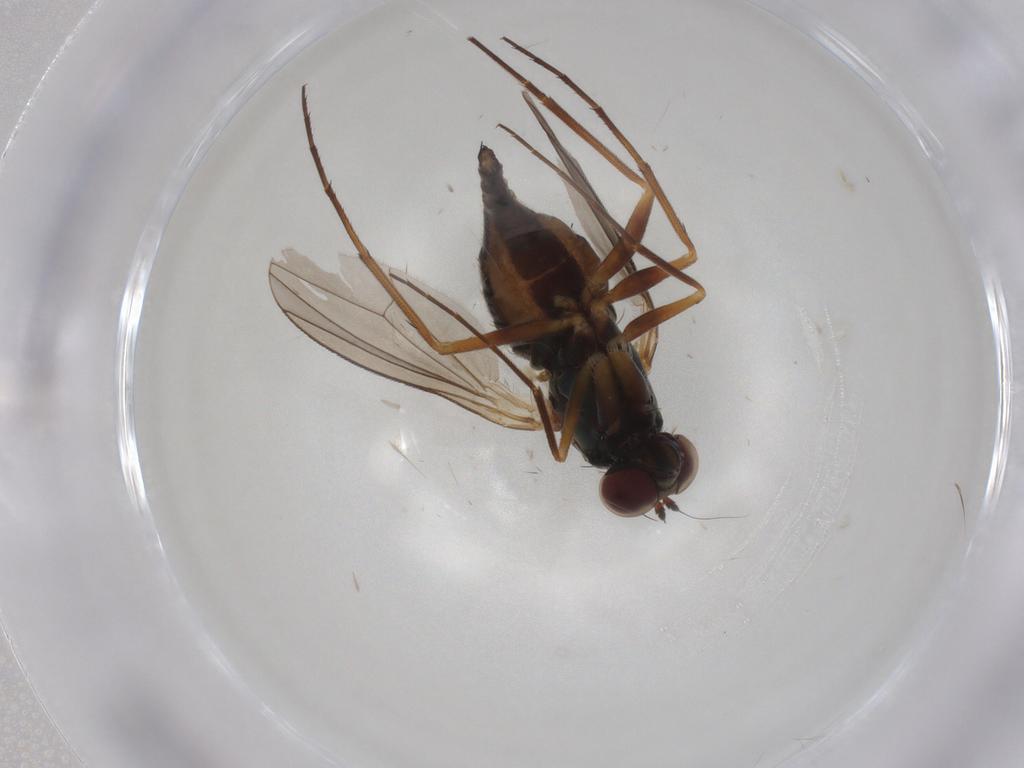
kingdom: Animalia
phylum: Arthropoda
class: Insecta
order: Diptera
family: Dolichopodidae
